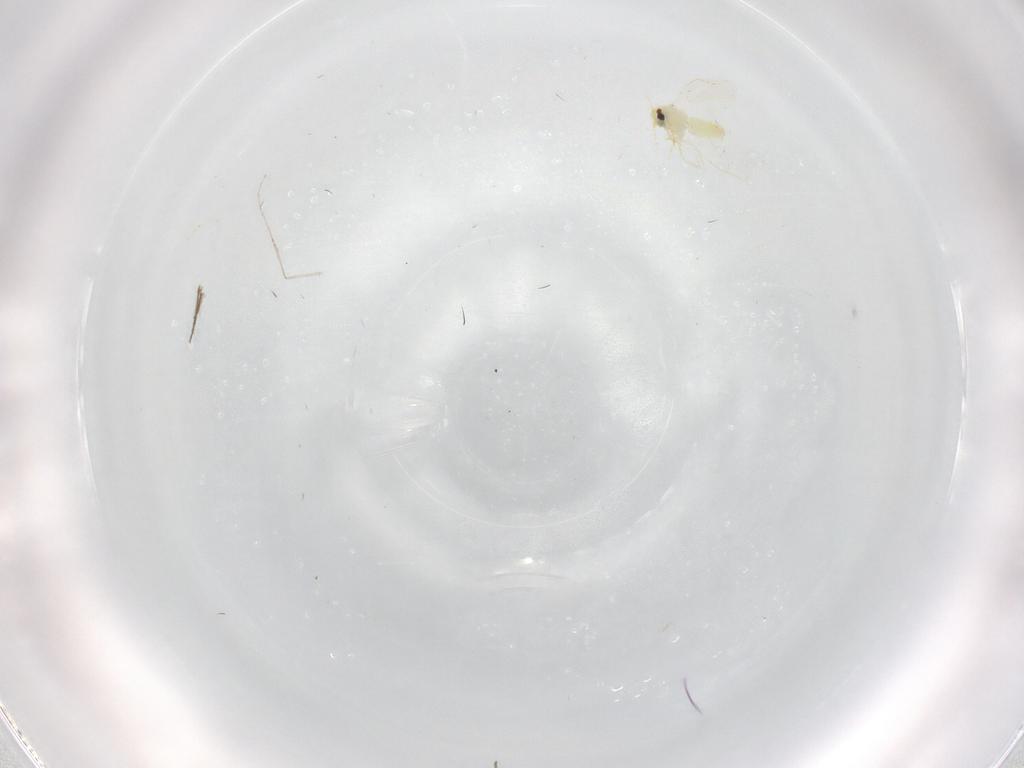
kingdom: Animalia
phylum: Arthropoda
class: Insecta
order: Hemiptera
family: Aleyrodidae
